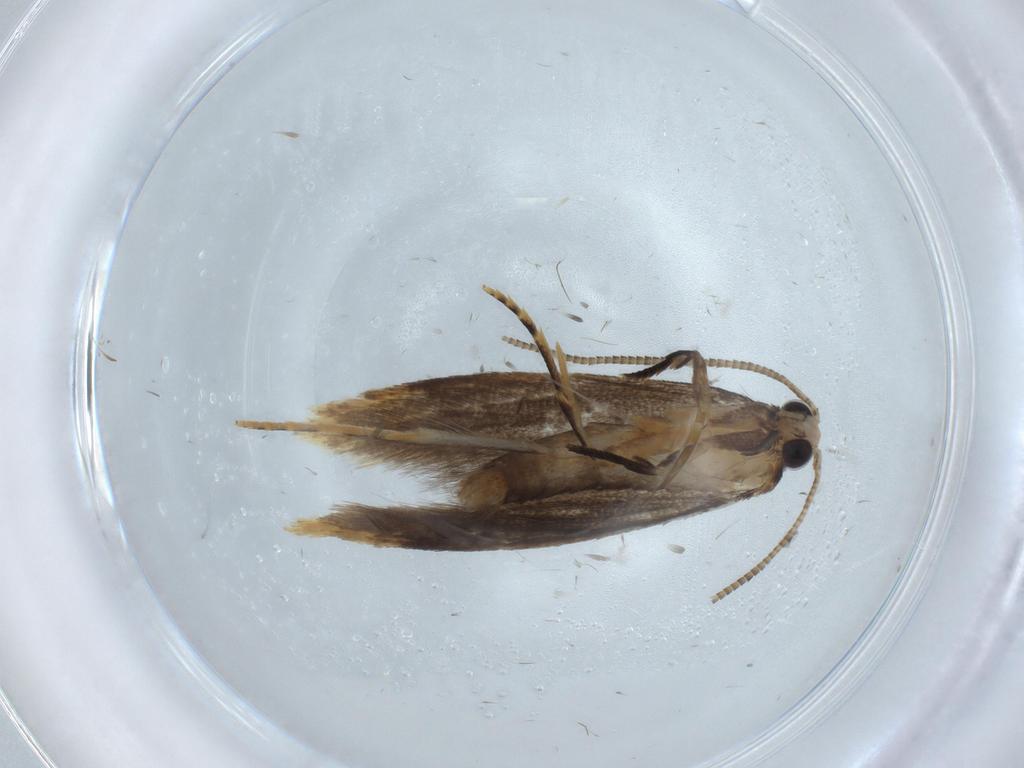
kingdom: Animalia
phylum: Arthropoda
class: Insecta
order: Lepidoptera
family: Tineidae
